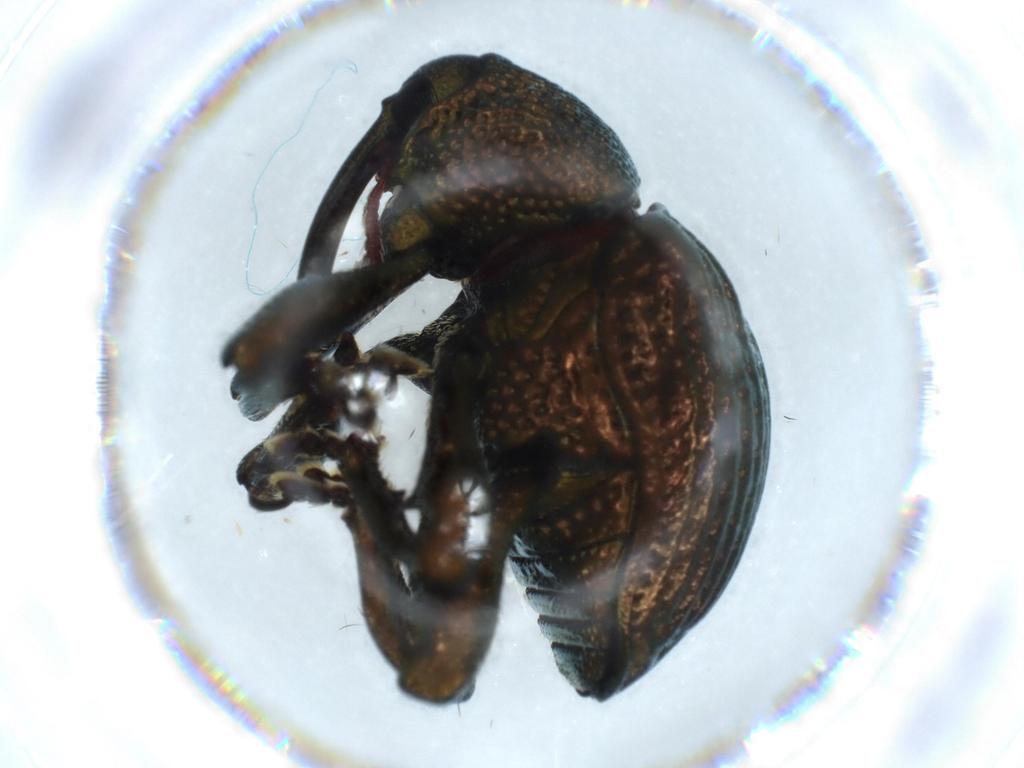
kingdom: Animalia
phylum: Arthropoda
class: Insecta
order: Coleoptera
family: Curculionidae
